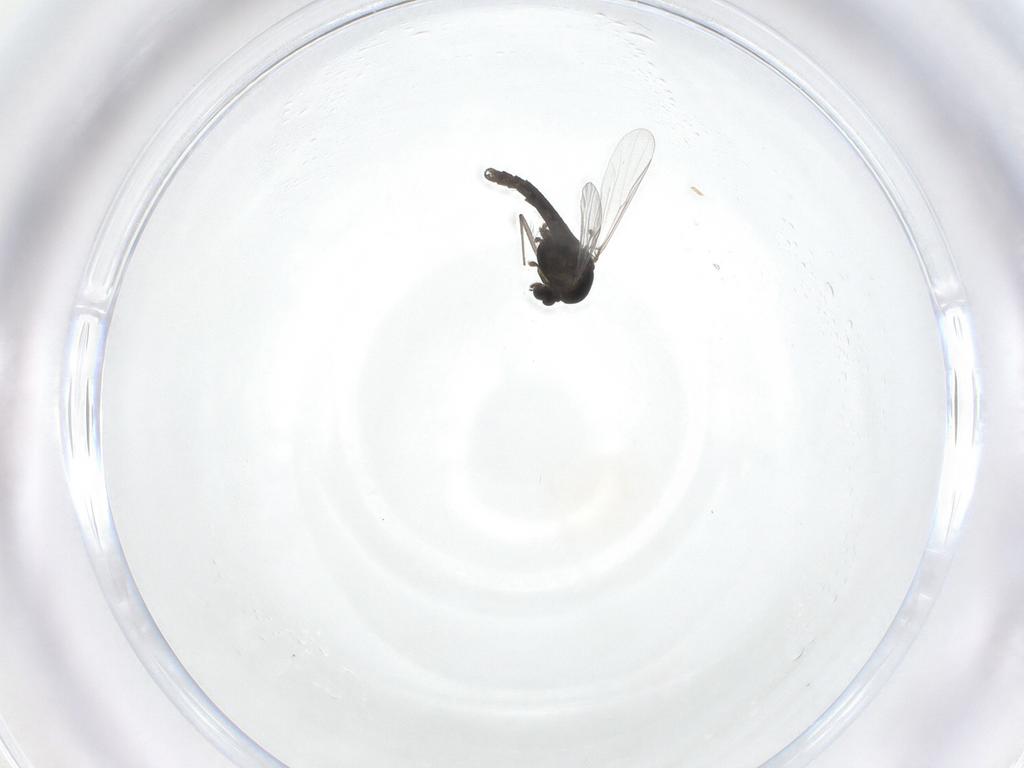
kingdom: Animalia
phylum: Arthropoda
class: Insecta
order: Diptera
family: Chironomidae
